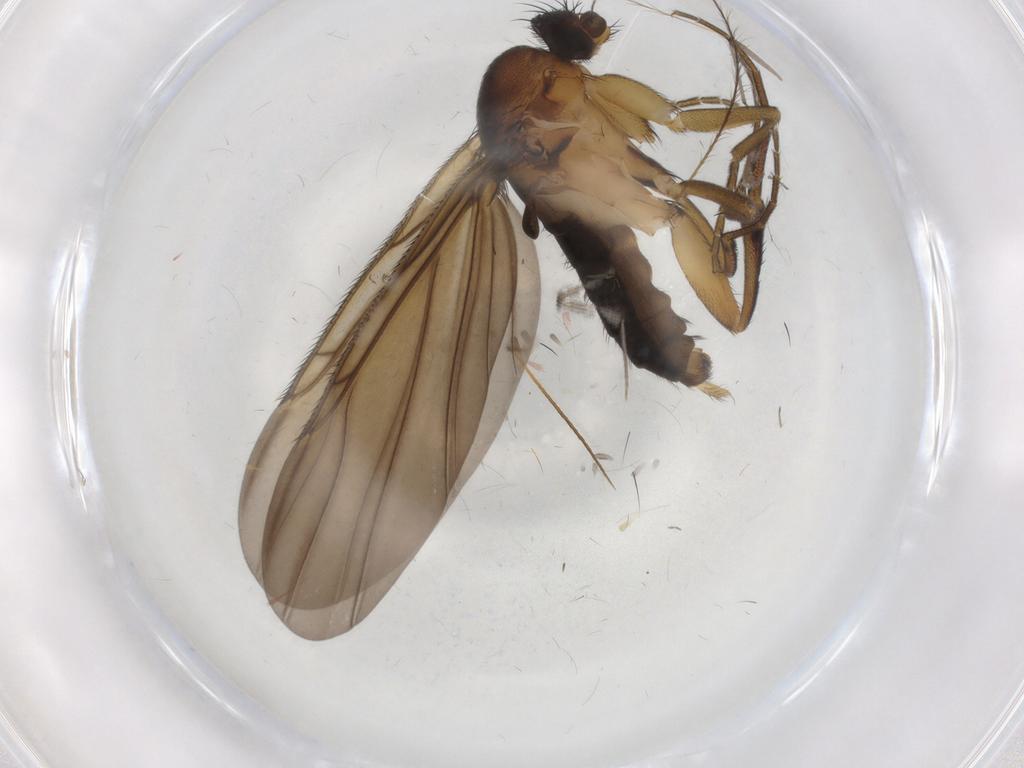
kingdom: Animalia
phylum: Arthropoda
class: Insecta
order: Diptera
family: Phoridae
